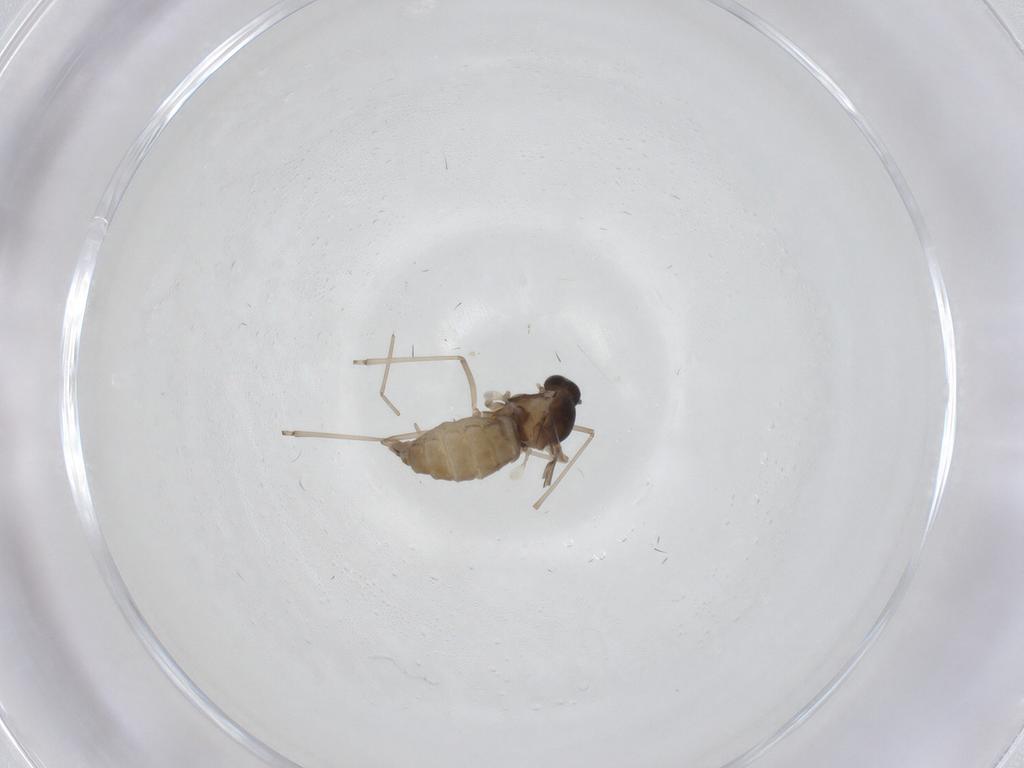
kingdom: Animalia
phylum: Arthropoda
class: Insecta
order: Diptera
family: Cecidomyiidae
